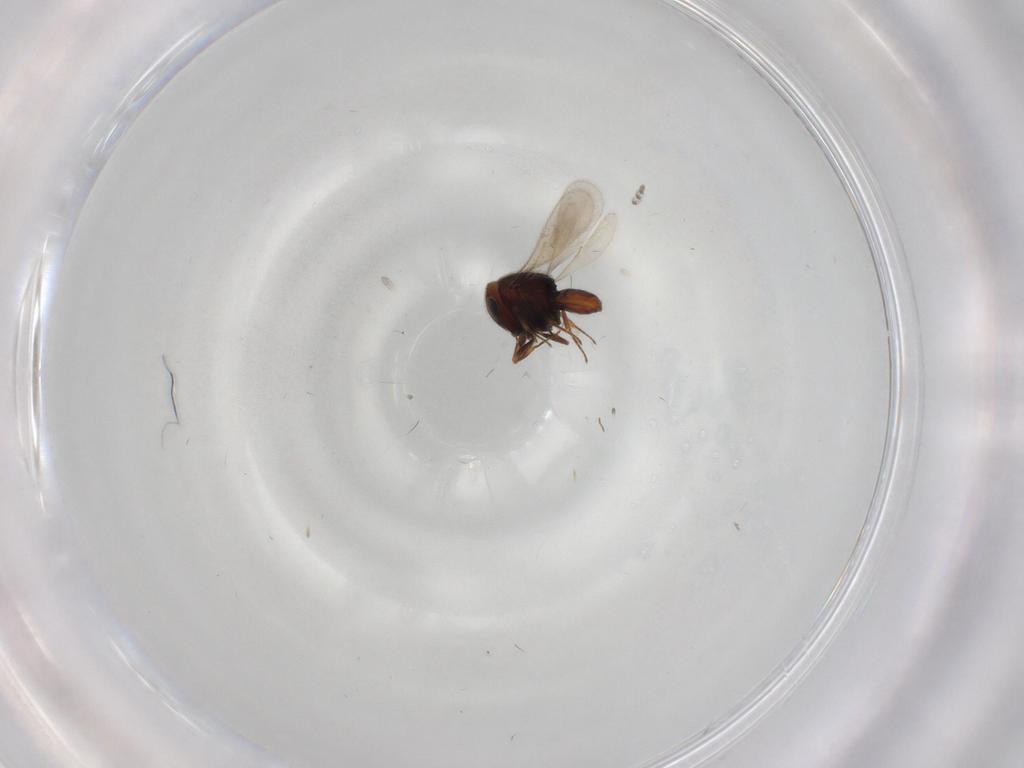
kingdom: Animalia
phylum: Arthropoda
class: Insecta
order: Hymenoptera
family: Scelionidae
